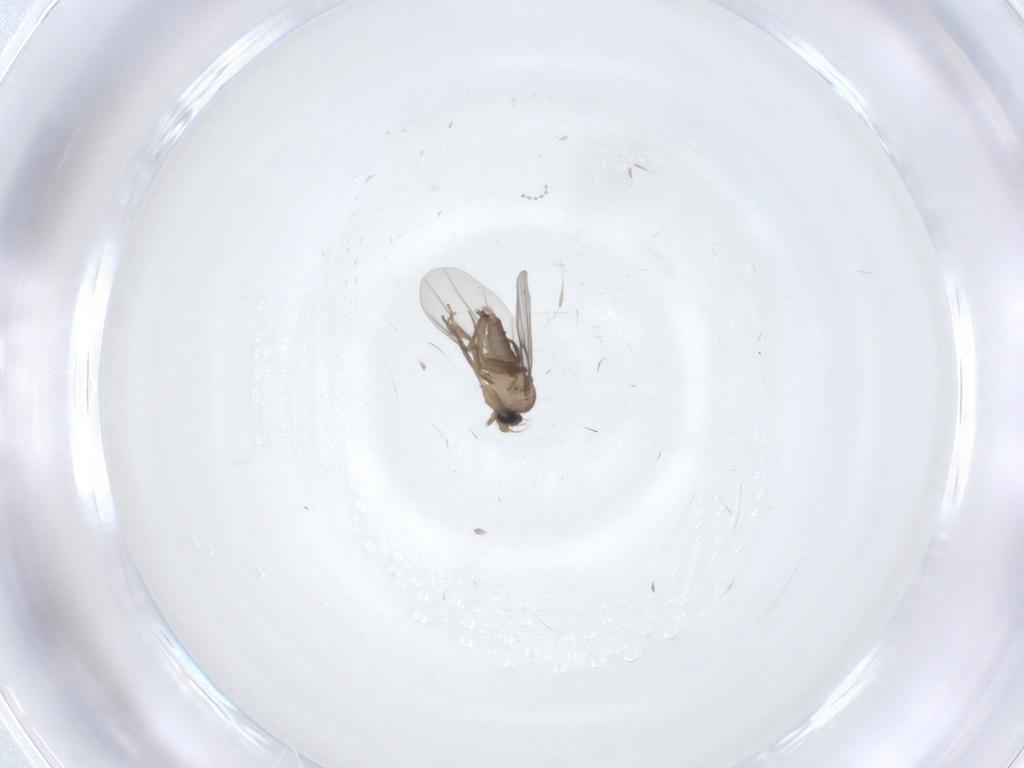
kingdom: Animalia
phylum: Arthropoda
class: Insecta
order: Diptera
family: Phoridae
